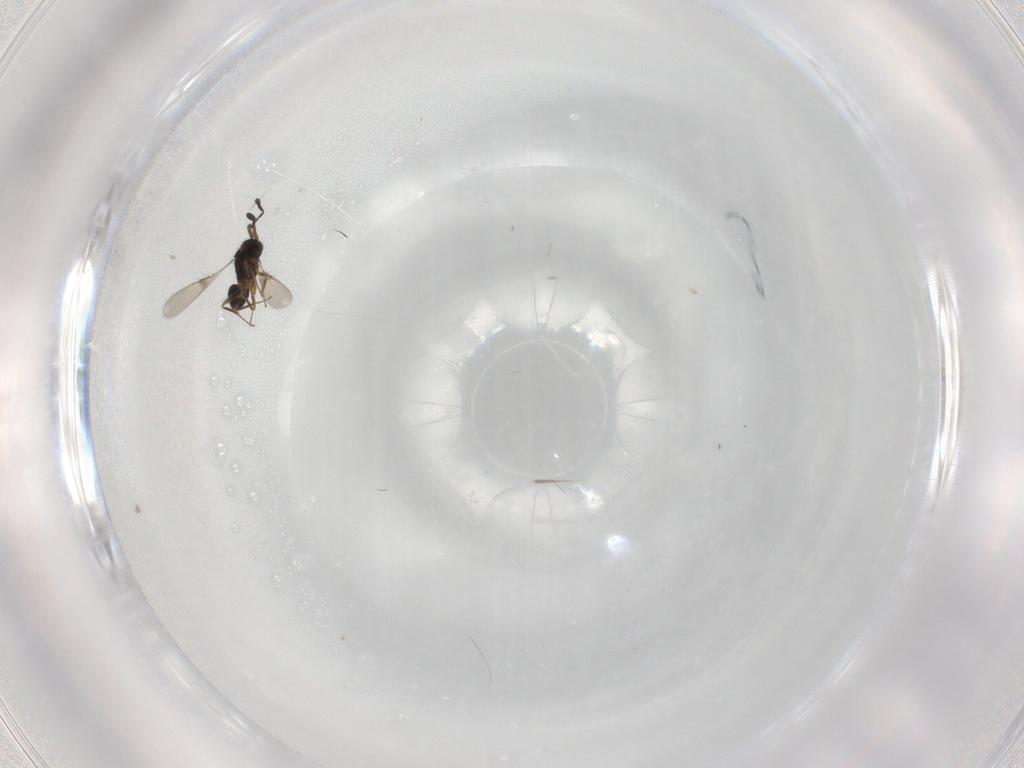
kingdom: Animalia
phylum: Arthropoda
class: Insecta
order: Hymenoptera
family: Mymaridae
